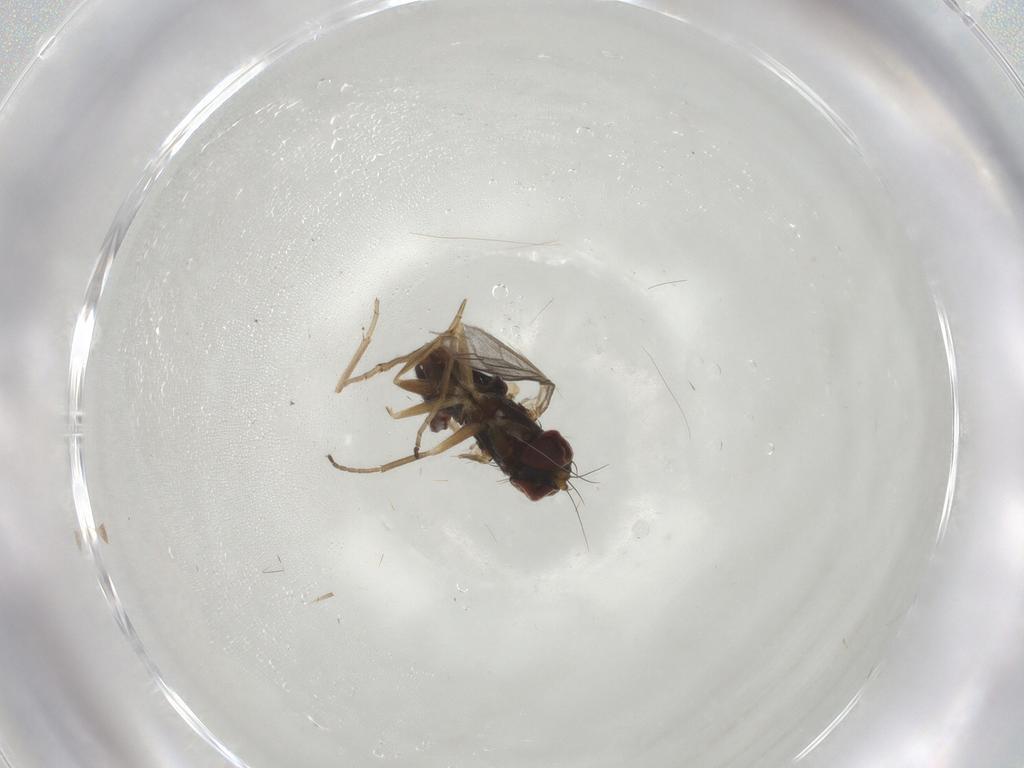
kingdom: Animalia
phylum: Arthropoda
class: Insecta
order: Diptera
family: Dolichopodidae
